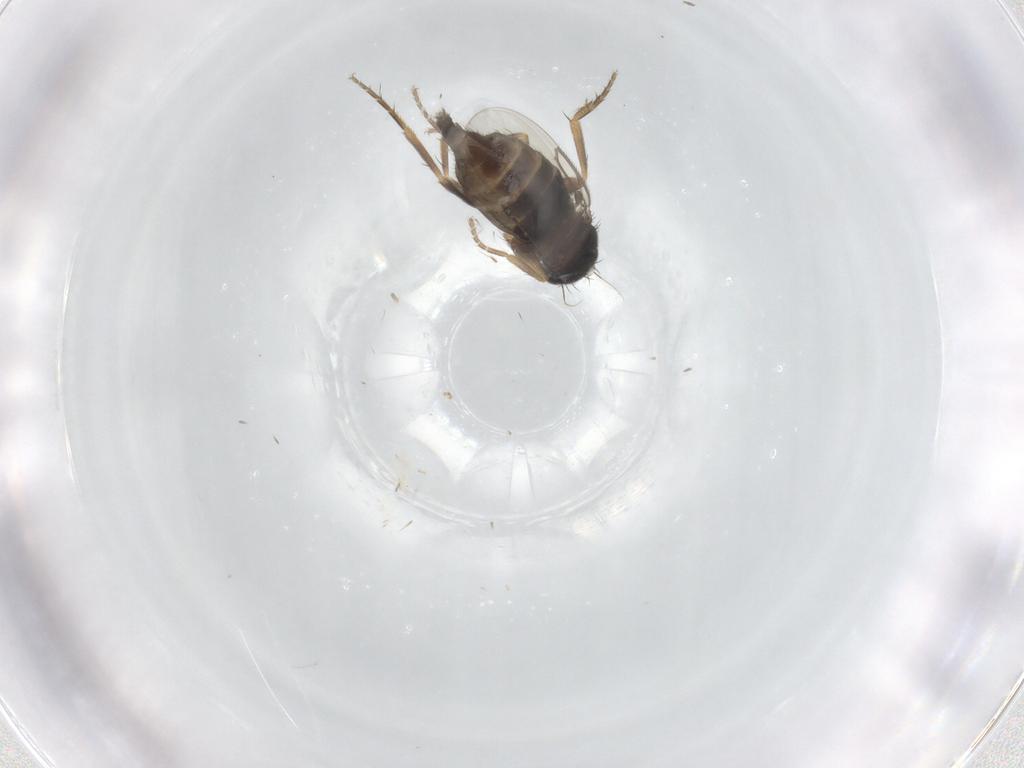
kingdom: Animalia
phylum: Arthropoda
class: Insecta
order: Diptera
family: Phoridae
